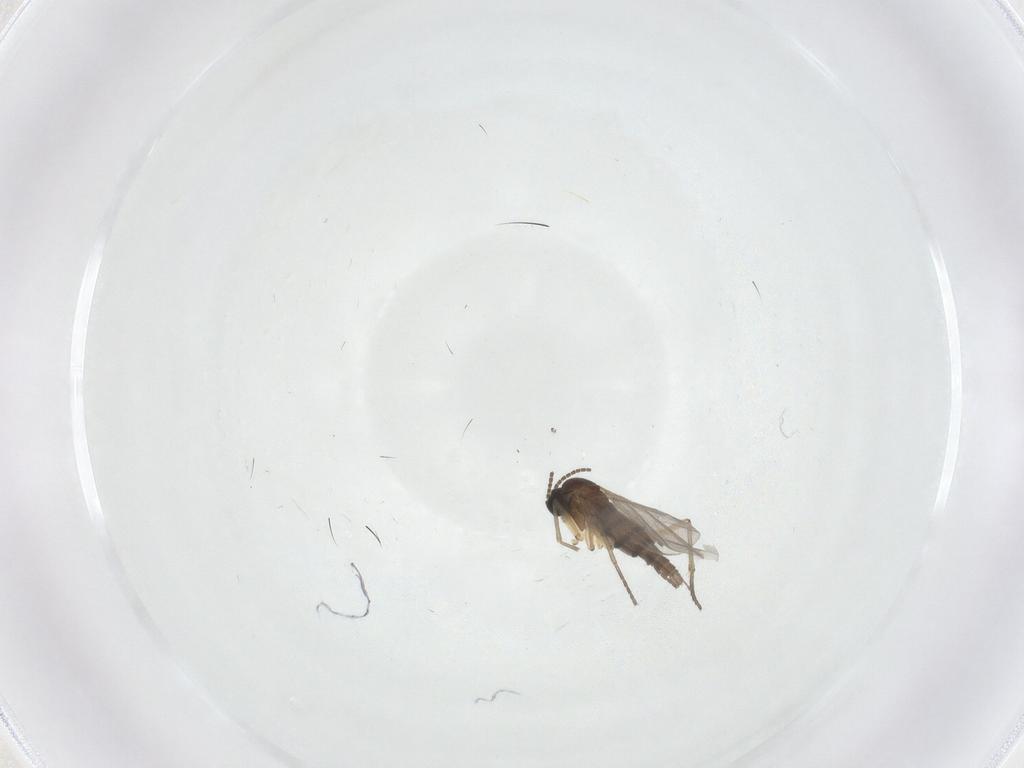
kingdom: Animalia
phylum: Arthropoda
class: Insecta
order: Diptera
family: Sciaridae
